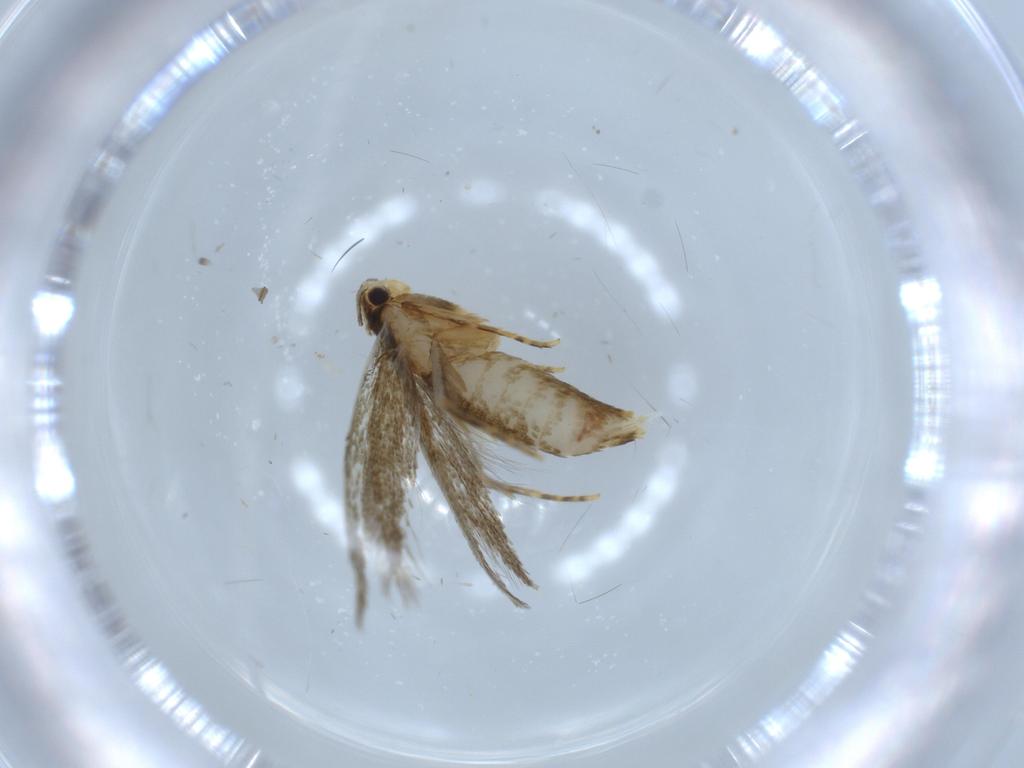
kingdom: Animalia
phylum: Arthropoda
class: Insecta
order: Lepidoptera
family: Tineidae
